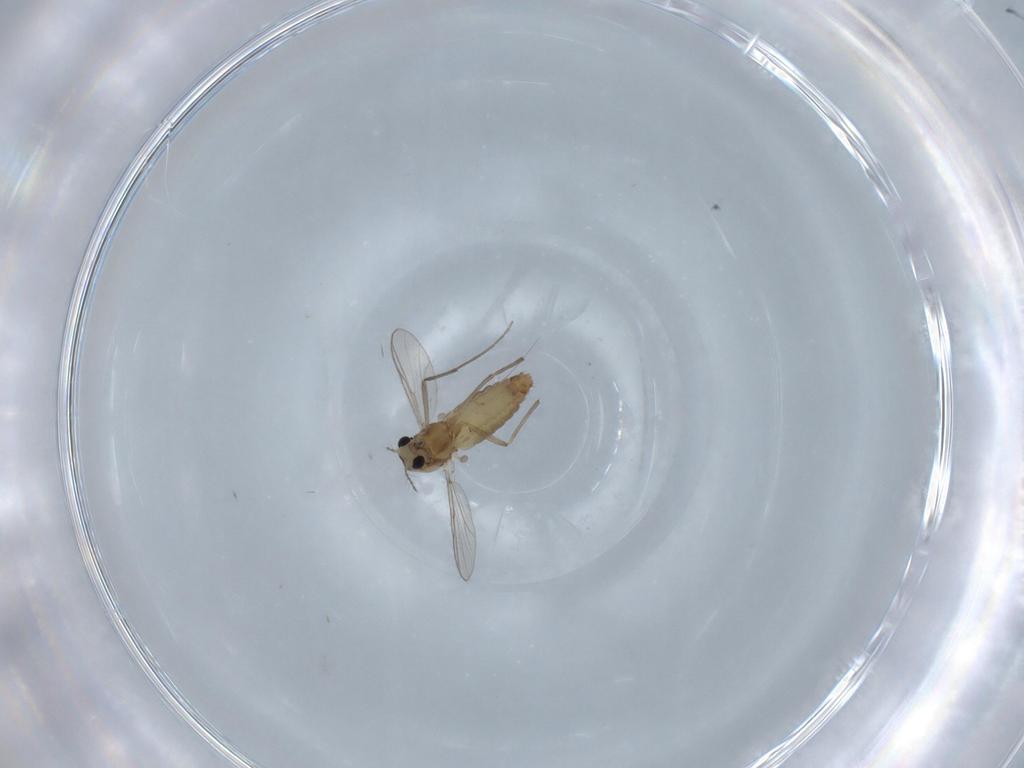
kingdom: Animalia
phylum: Arthropoda
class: Insecta
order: Diptera
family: Chironomidae
